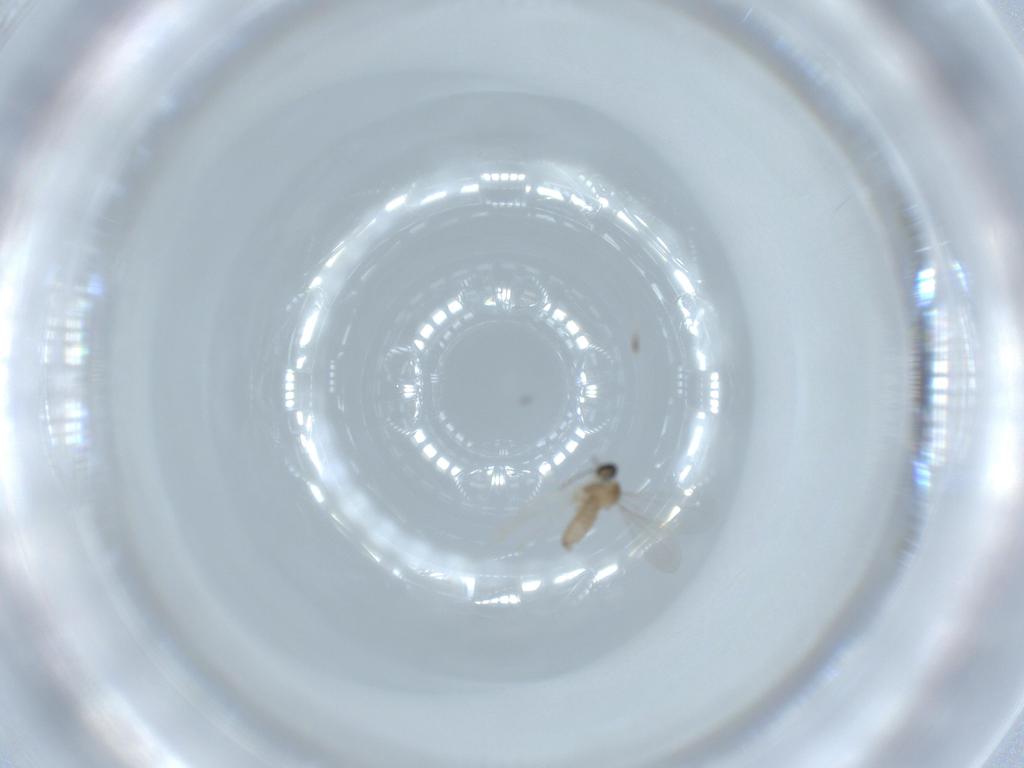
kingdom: Animalia
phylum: Arthropoda
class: Insecta
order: Diptera
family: Cecidomyiidae
